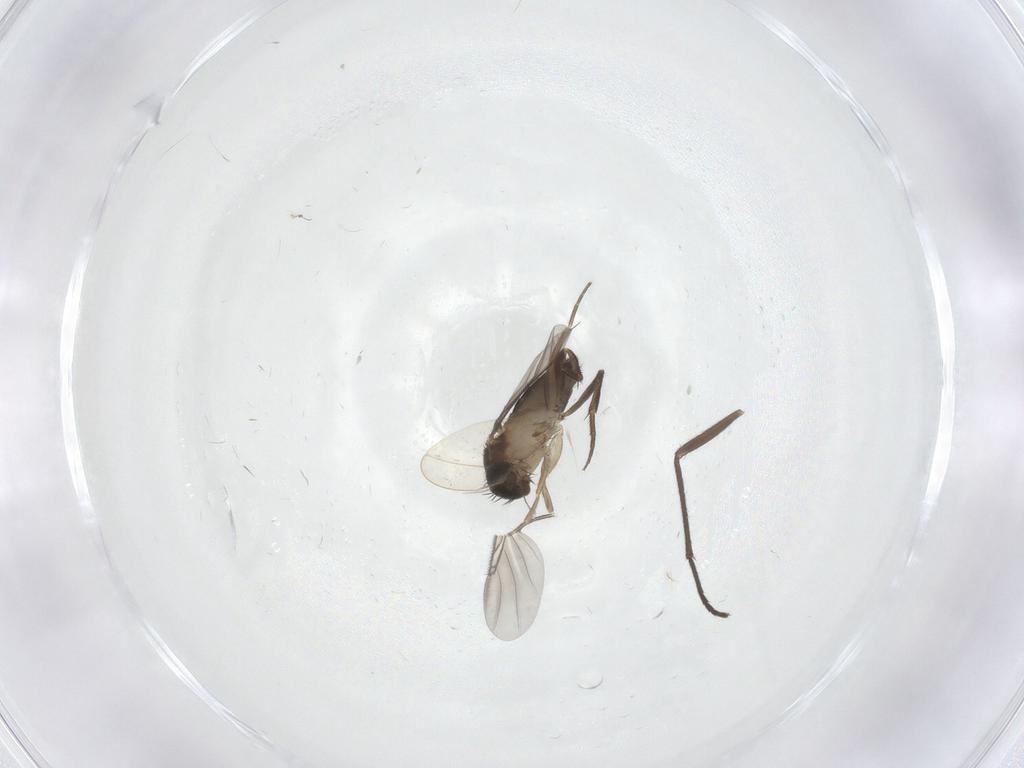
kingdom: Animalia
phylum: Arthropoda
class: Insecta
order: Diptera
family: Phoridae
